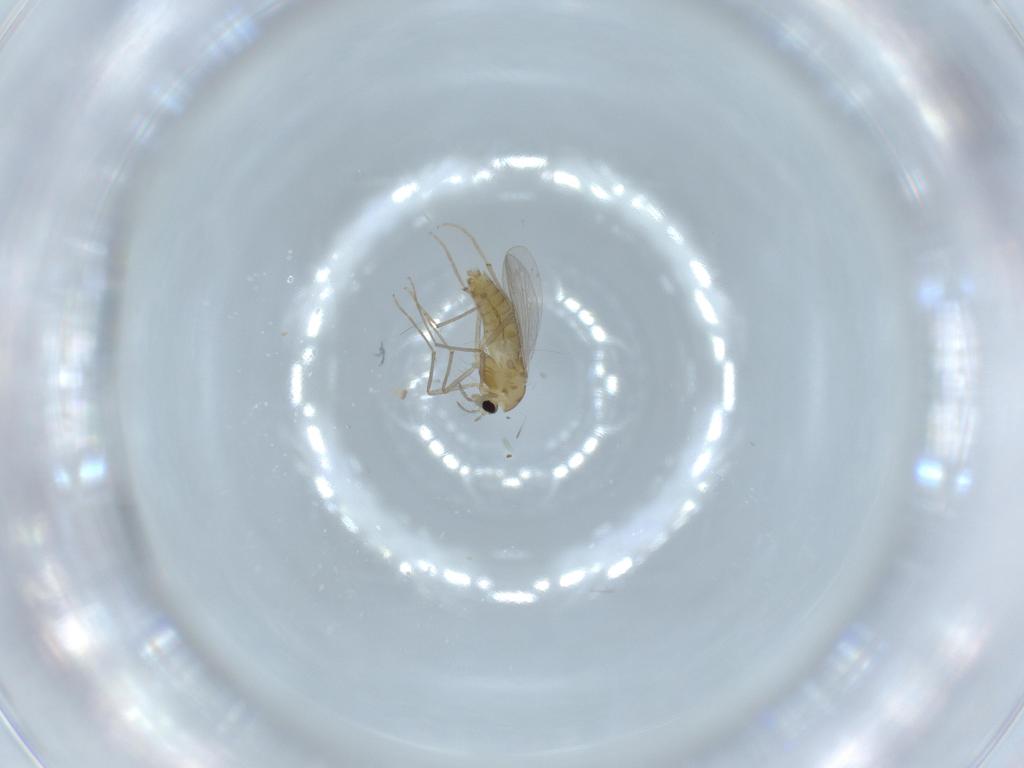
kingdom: Animalia
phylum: Arthropoda
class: Insecta
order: Diptera
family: Chironomidae
